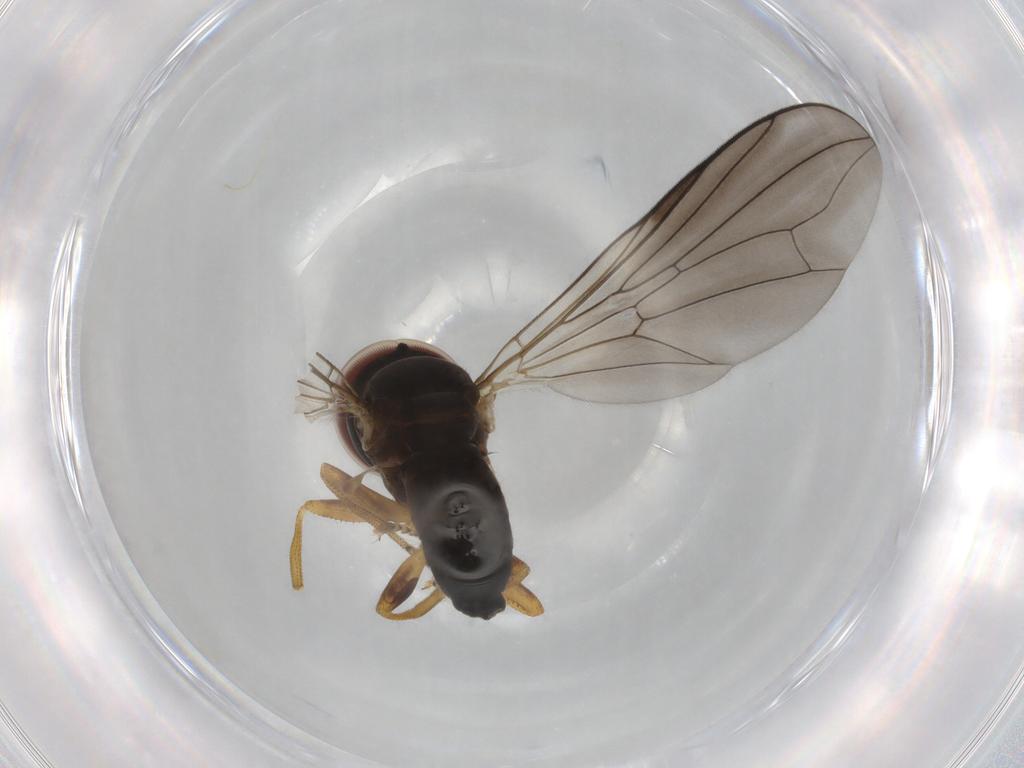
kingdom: Animalia
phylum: Arthropoda
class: Insecta
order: Diptera
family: Pipunculidae
